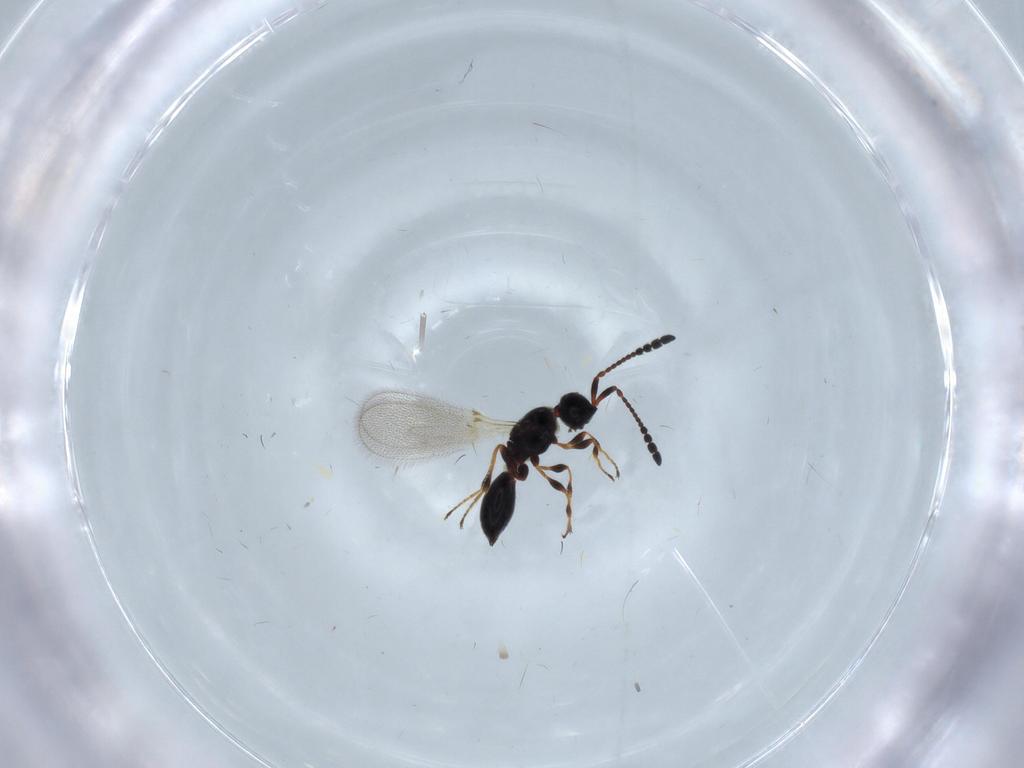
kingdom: Animalia
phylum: Arthropoda
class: Insecta
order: Hymenoptera
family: Diapriidae
